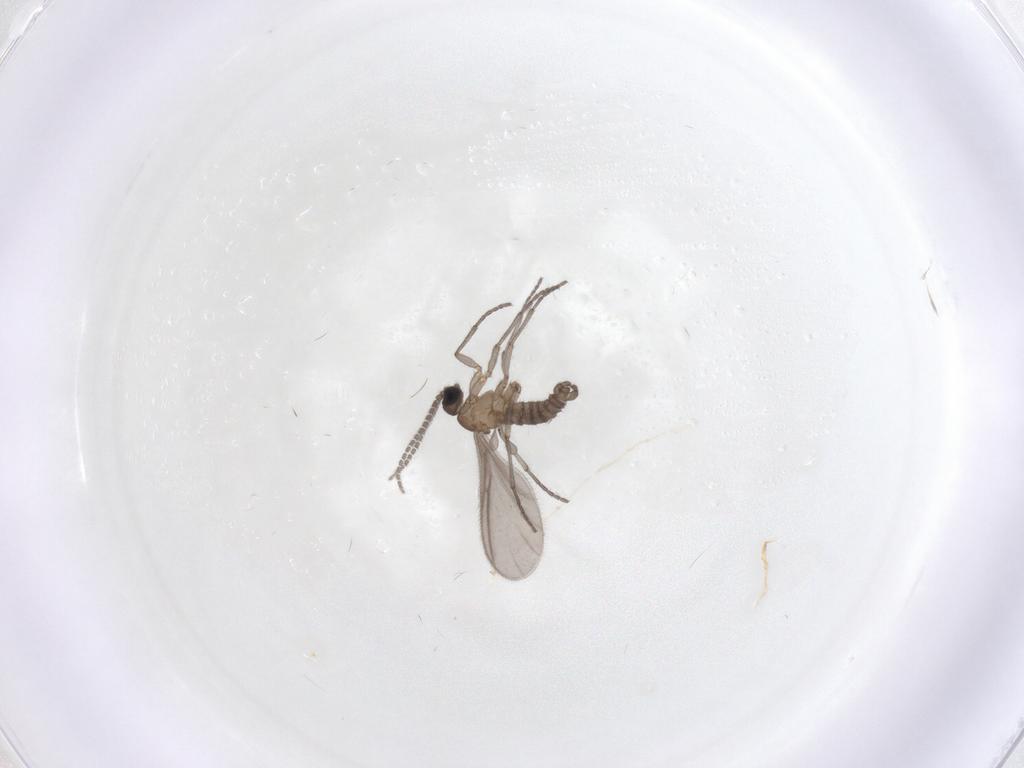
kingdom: Animalia
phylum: Arthropoda
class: Insecta
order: Diptera
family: Sciaridae
